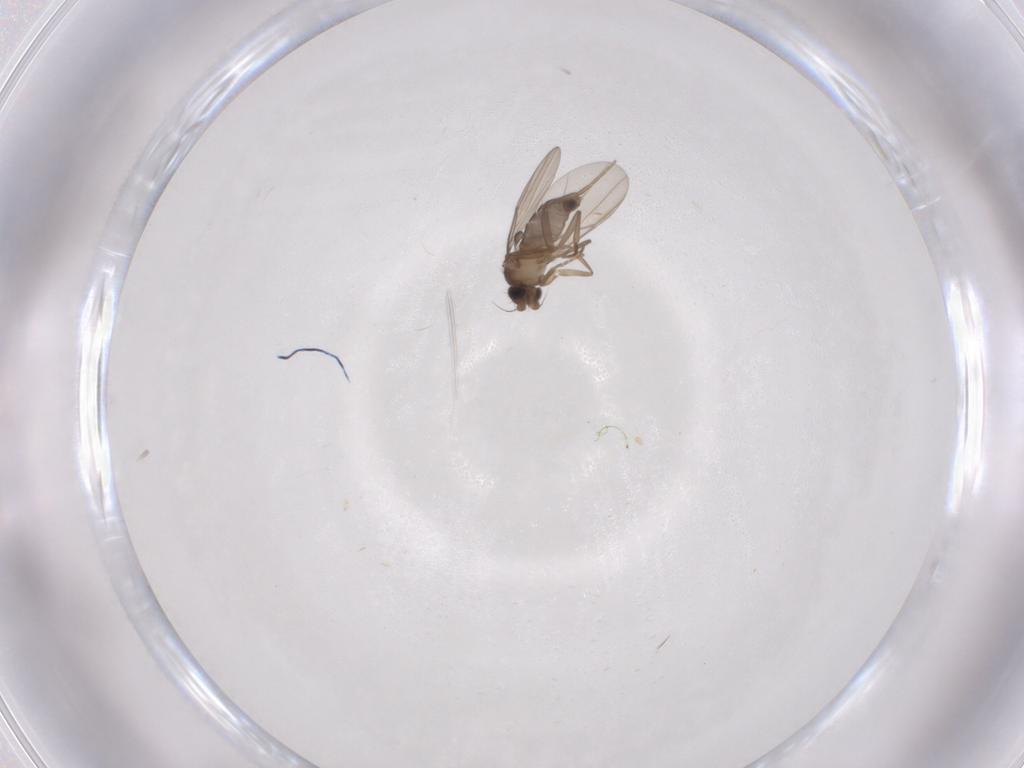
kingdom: Animalia
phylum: Arthropoda
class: Insecta
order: Diptera
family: Phoridae
